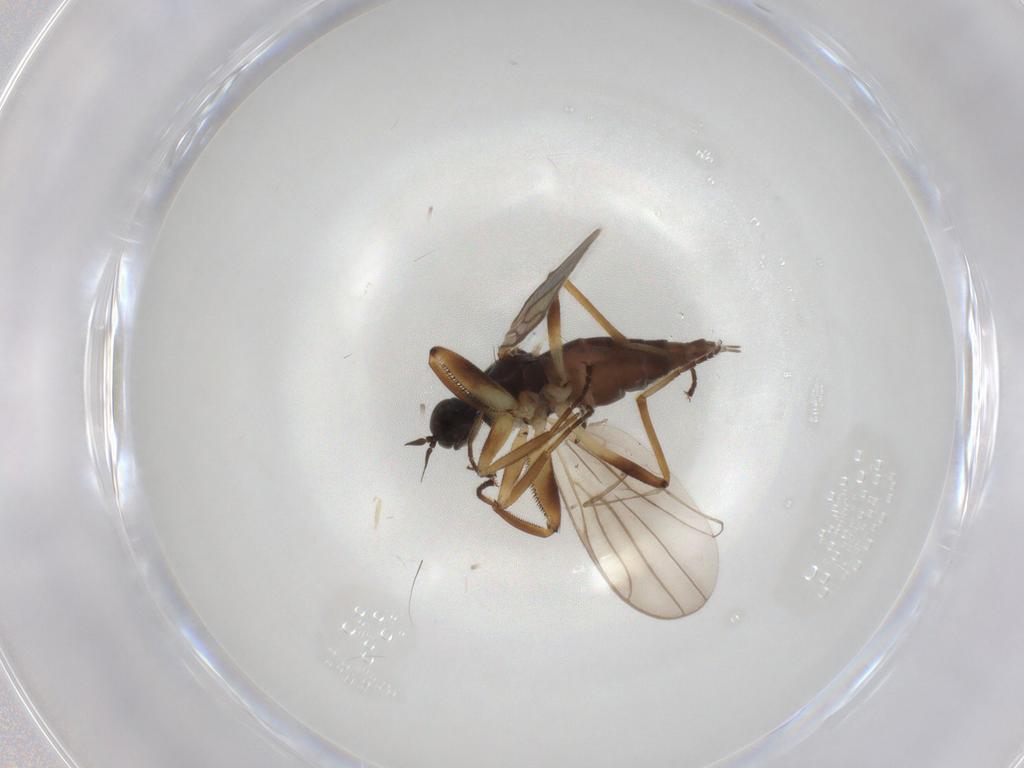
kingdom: Animalia
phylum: Arthropoda
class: Insecta
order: Diptera
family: Hybotidae
